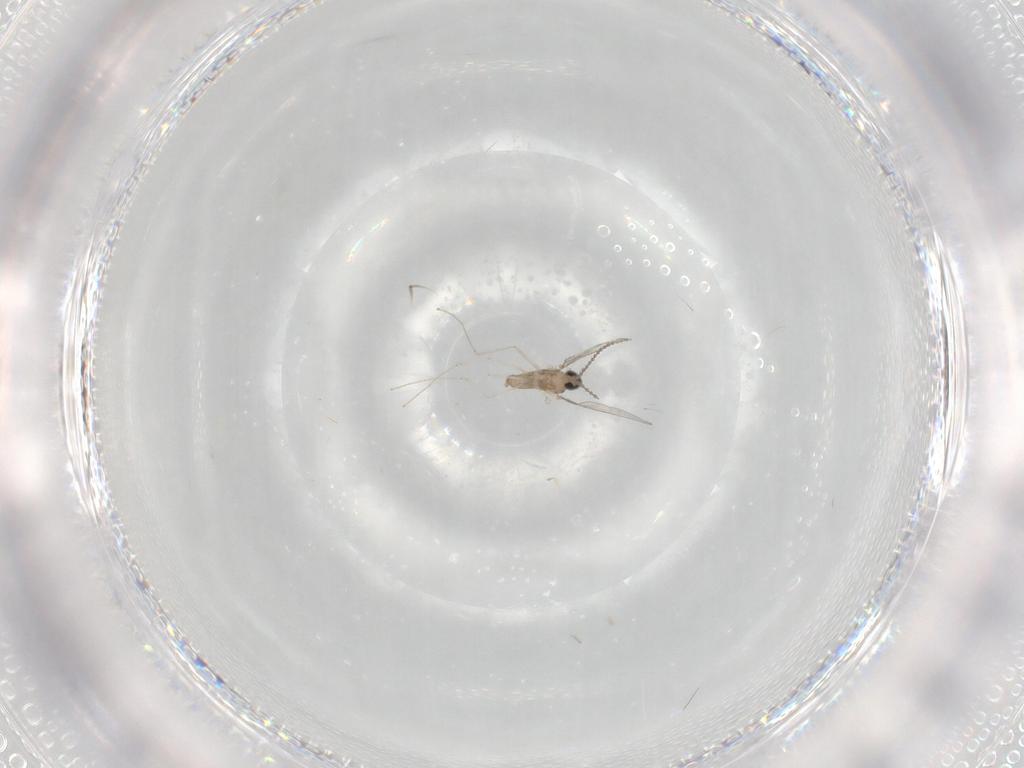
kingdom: Animalia
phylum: Arthropoda
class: Insecta
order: Diptera
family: Cecidomyiidae
